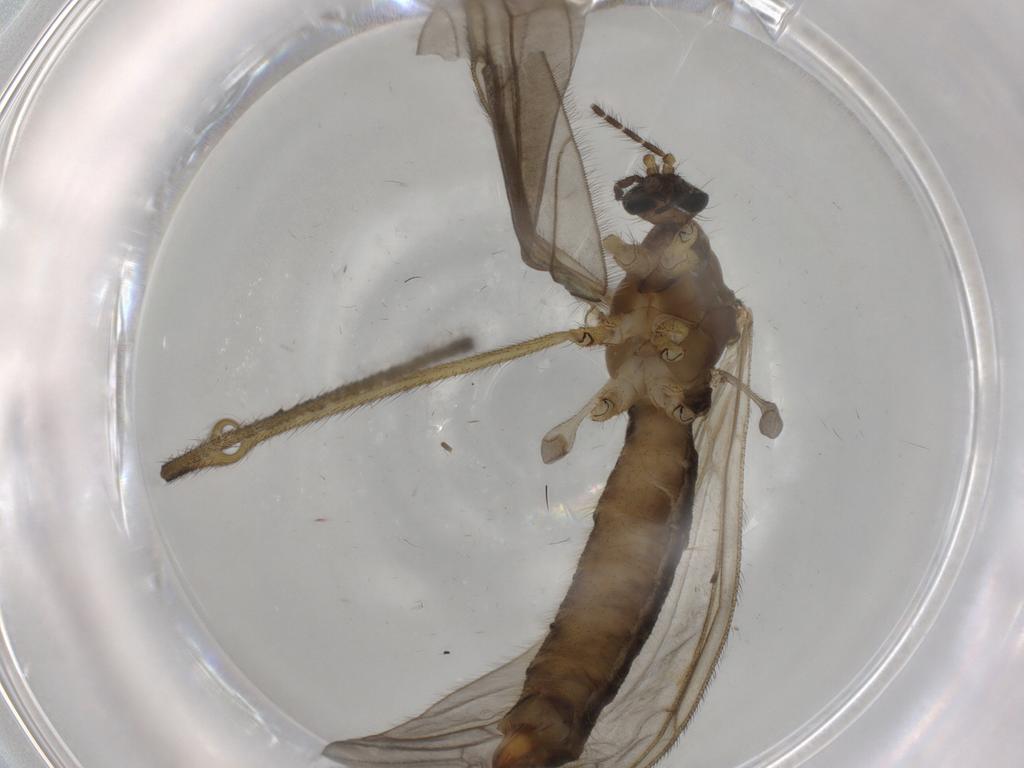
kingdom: Animalia
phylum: Arthropoda
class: Insecta
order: Diptera
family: Limoniidae
